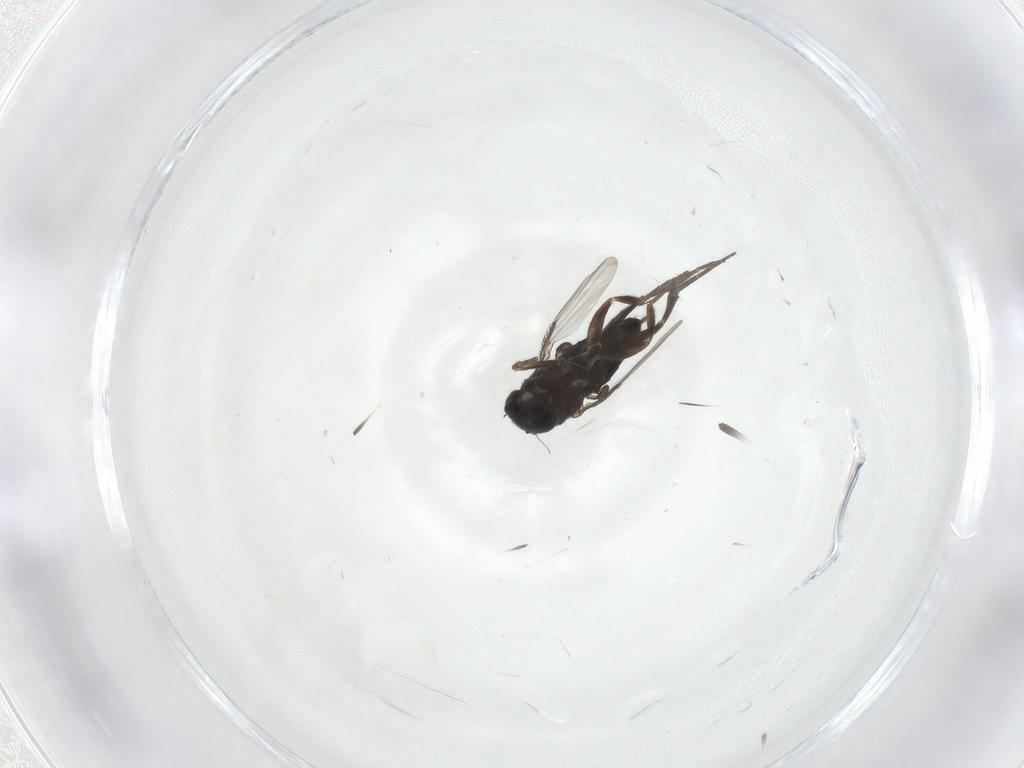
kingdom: Animalia
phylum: Arthropoda
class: Insecta
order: Diptera
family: Phoridae
